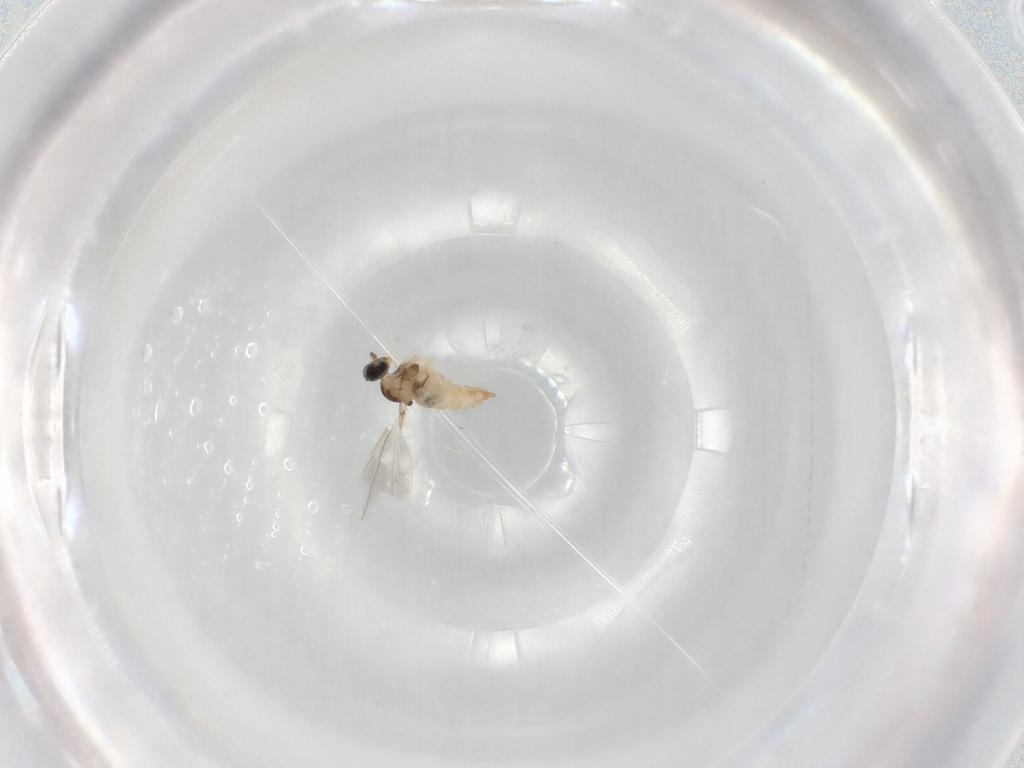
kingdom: Animalia
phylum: Arthropoda
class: Insecta
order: Diptera
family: Cecidomyiidae
